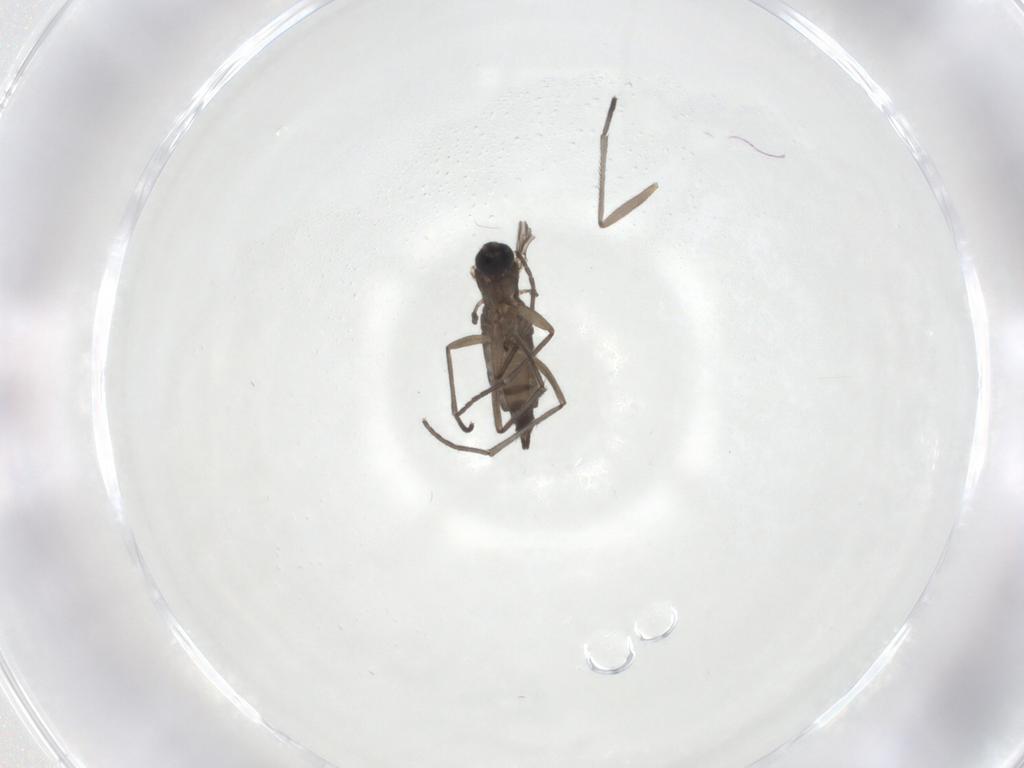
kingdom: Animalia
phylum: Arthropoda
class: Insecta
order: Diptera
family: Sciaridae
